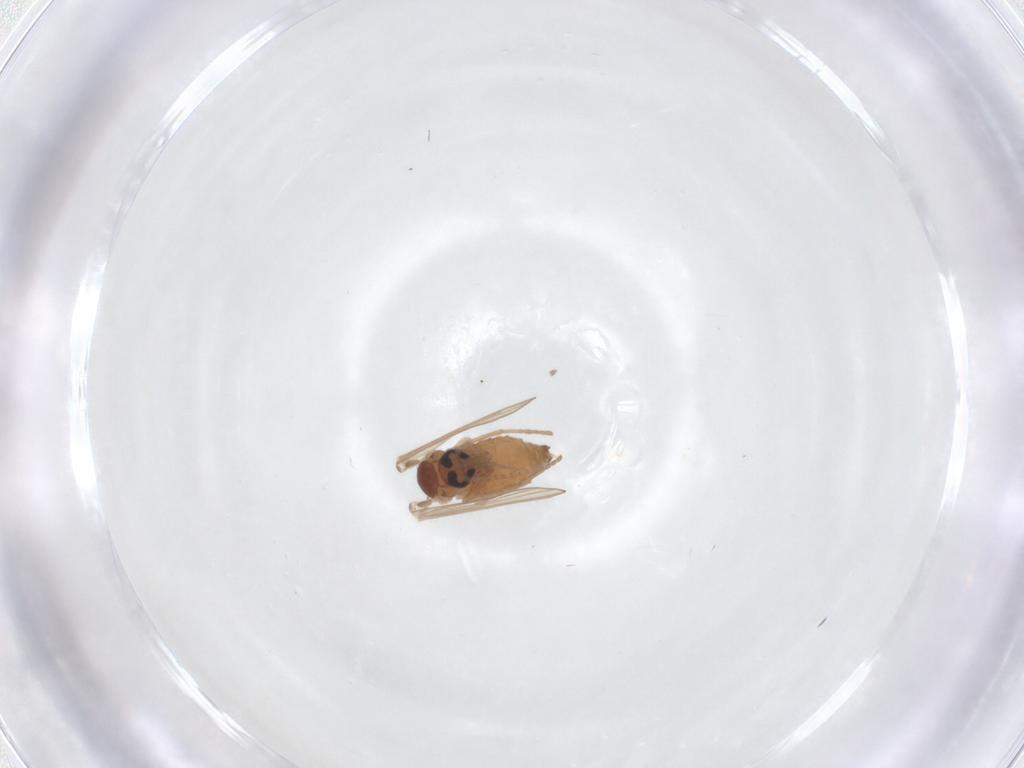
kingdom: Animalia
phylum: Arthropoda
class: Insecta
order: Diptera
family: Psychodidae
